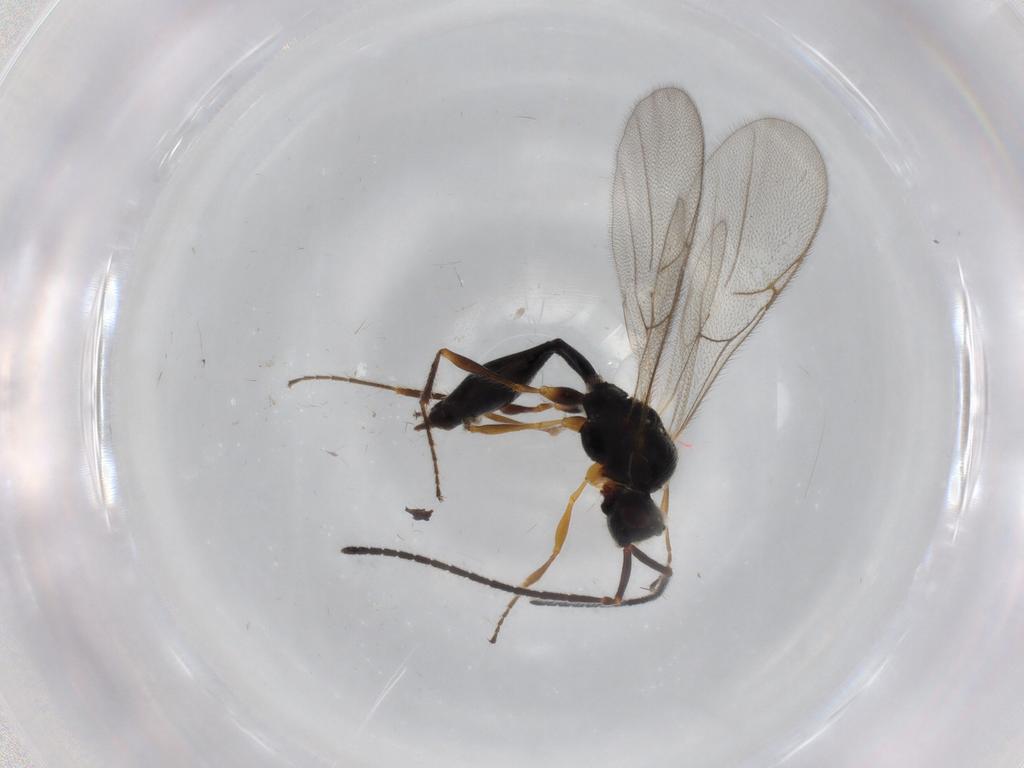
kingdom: Animalia
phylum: Arthropoda
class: Insecta
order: Hymenoptera
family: Diapriidae
